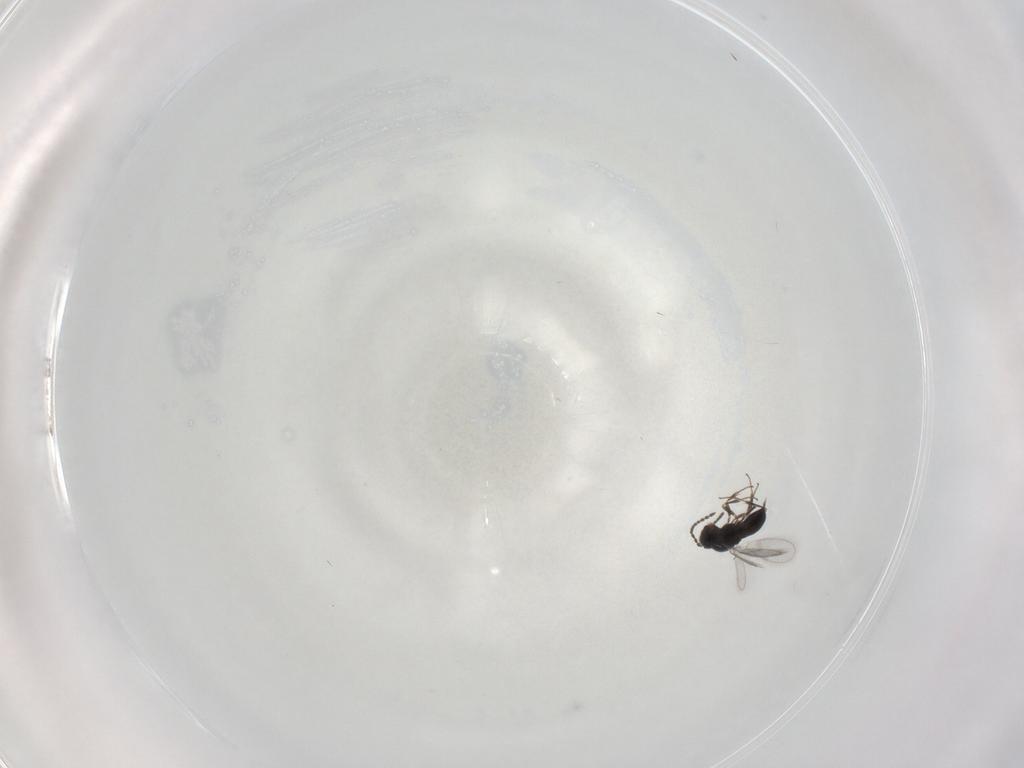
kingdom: Animalia
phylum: Arthropoda
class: Insecta
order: Hymenoptera
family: Scelionidae
